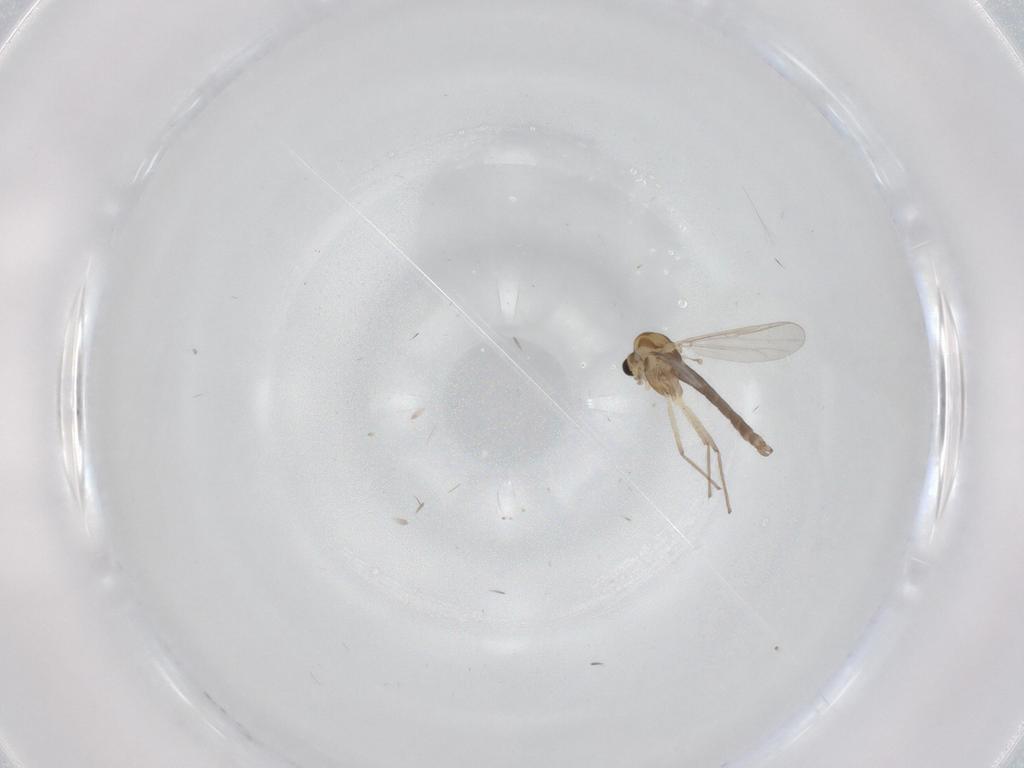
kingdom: Animalia
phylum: Arthropoda
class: Insecta
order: Diptera
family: Chironomidae
